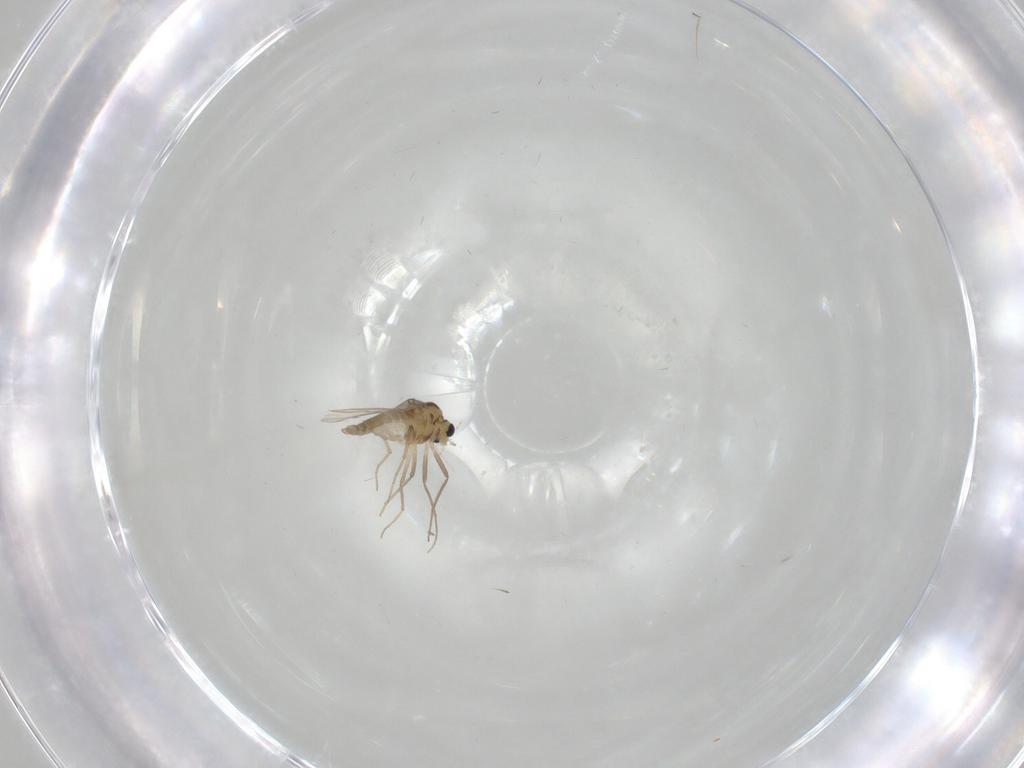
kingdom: Animalia
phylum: Arthropoda
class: Insecta
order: Diptera
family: Chironomidae
